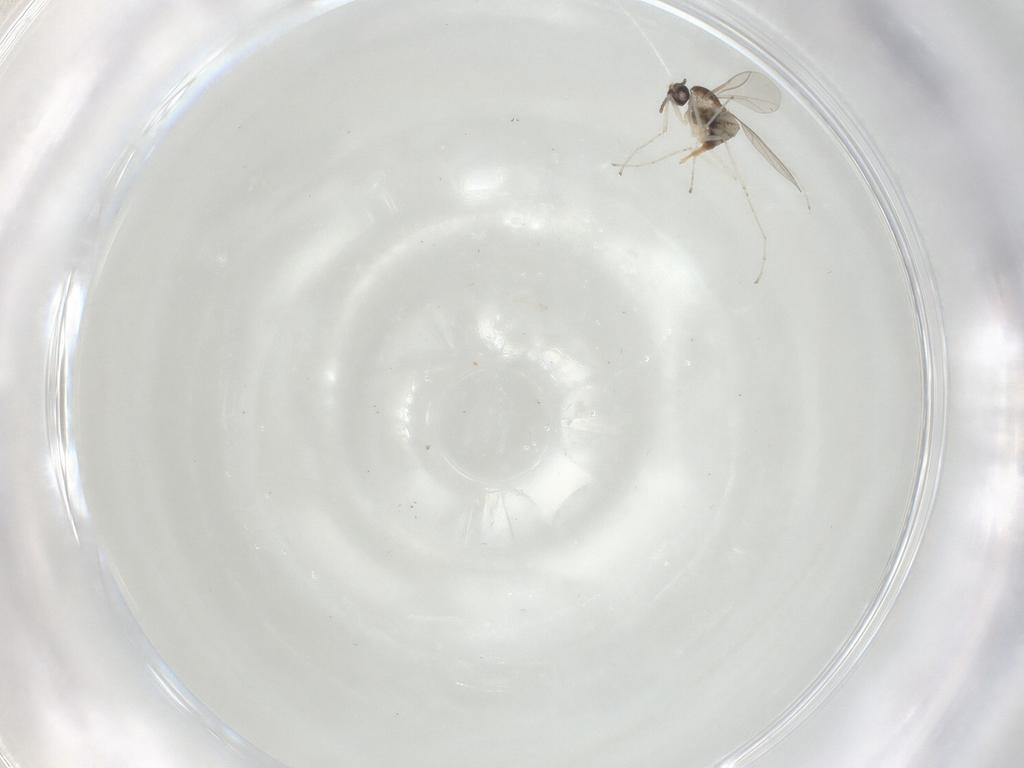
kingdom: Animalia
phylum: Arthropoda
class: Insecta
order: Diptera
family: Cecidomyiidae
